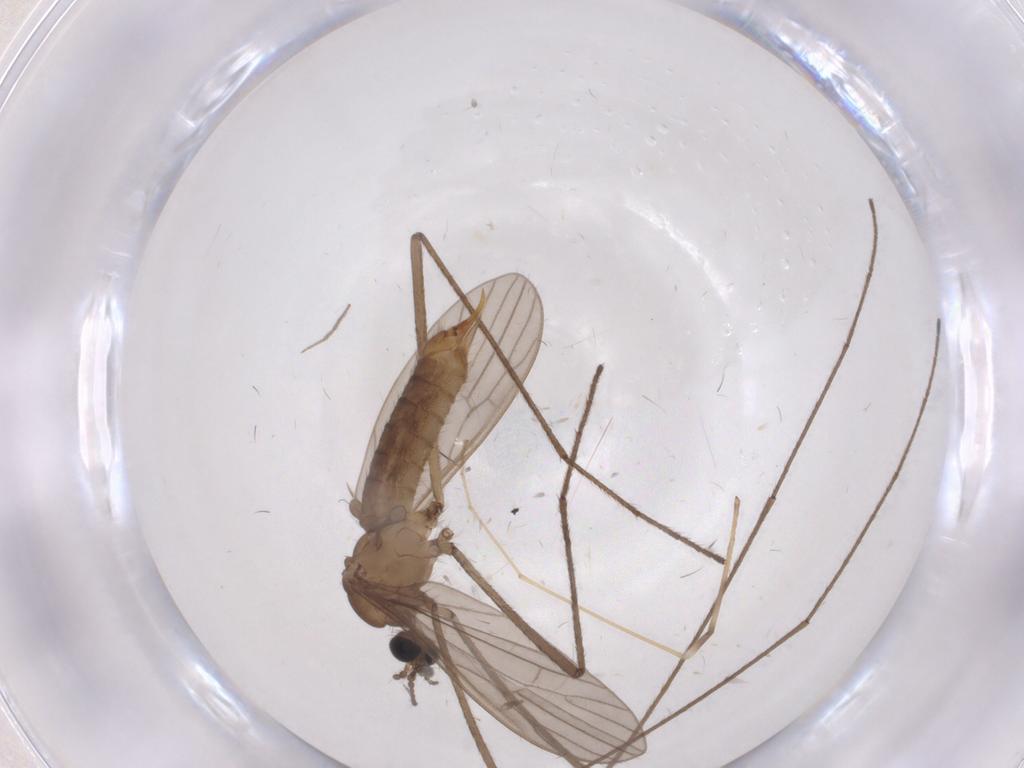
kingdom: Animalia
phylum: Arthropoda
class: Insecta
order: Diptera
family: Limoniidae
